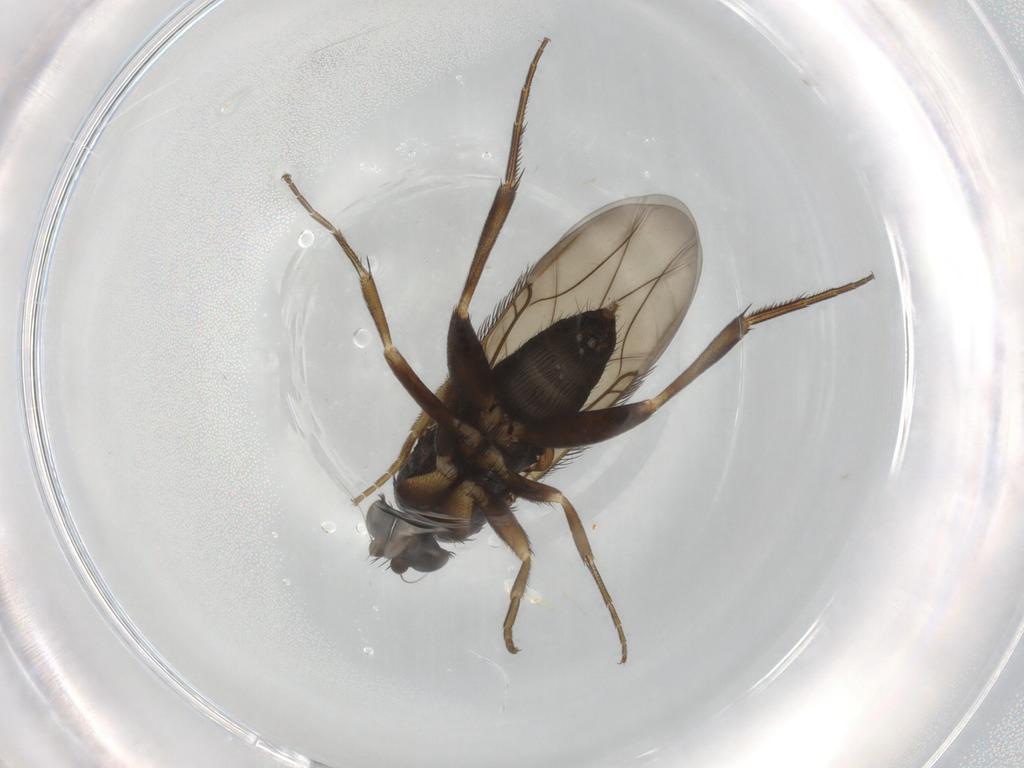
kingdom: Animalia
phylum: Arthropoda
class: Insecta
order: Diptera
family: Phoridae
